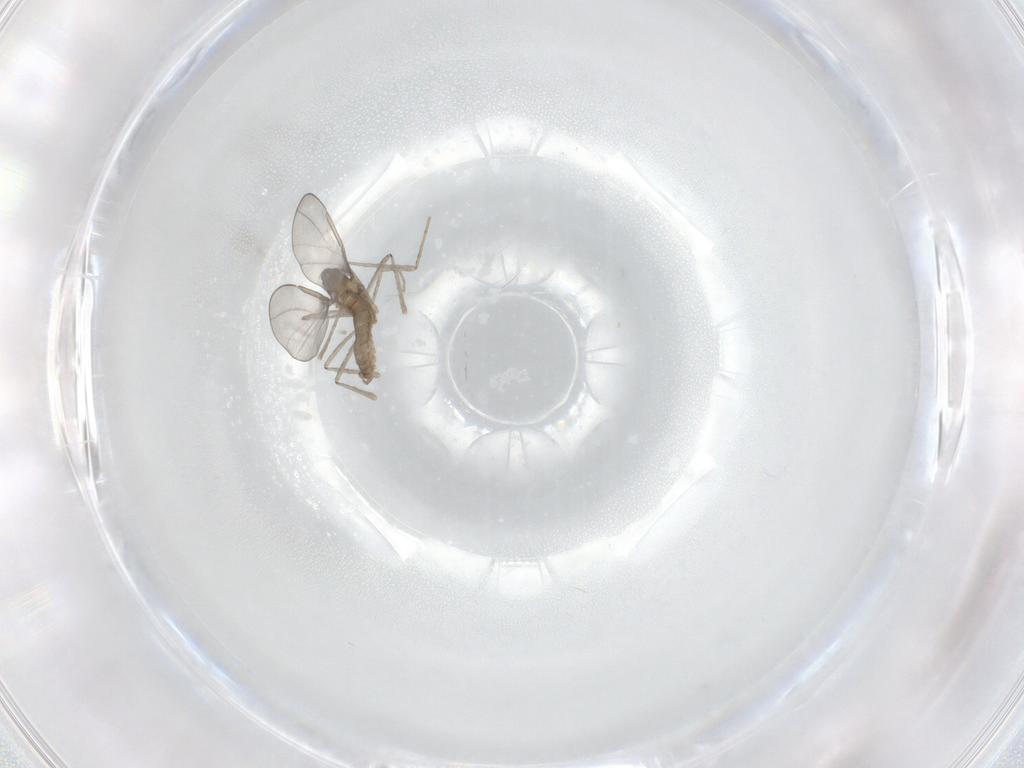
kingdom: Animalia
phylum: Arthropoda
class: Insecta
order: Diptera
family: Cecidomyiidae
